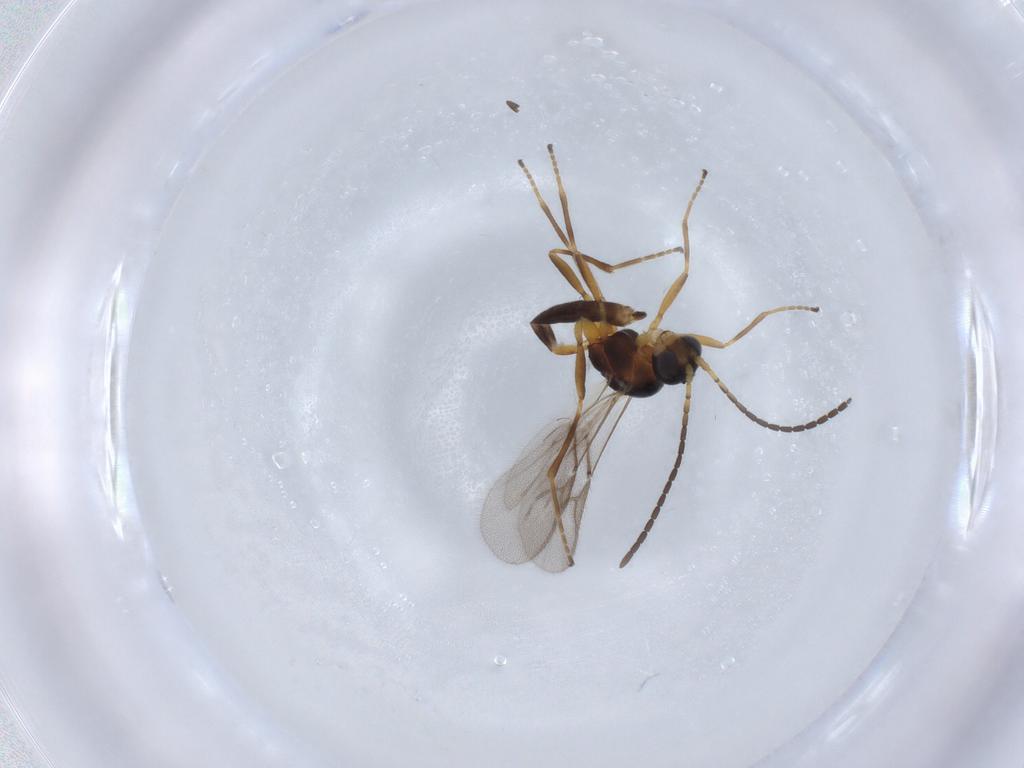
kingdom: Animalia
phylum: Arthropoda
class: Insecta
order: Hymenoptera
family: Braconidae
